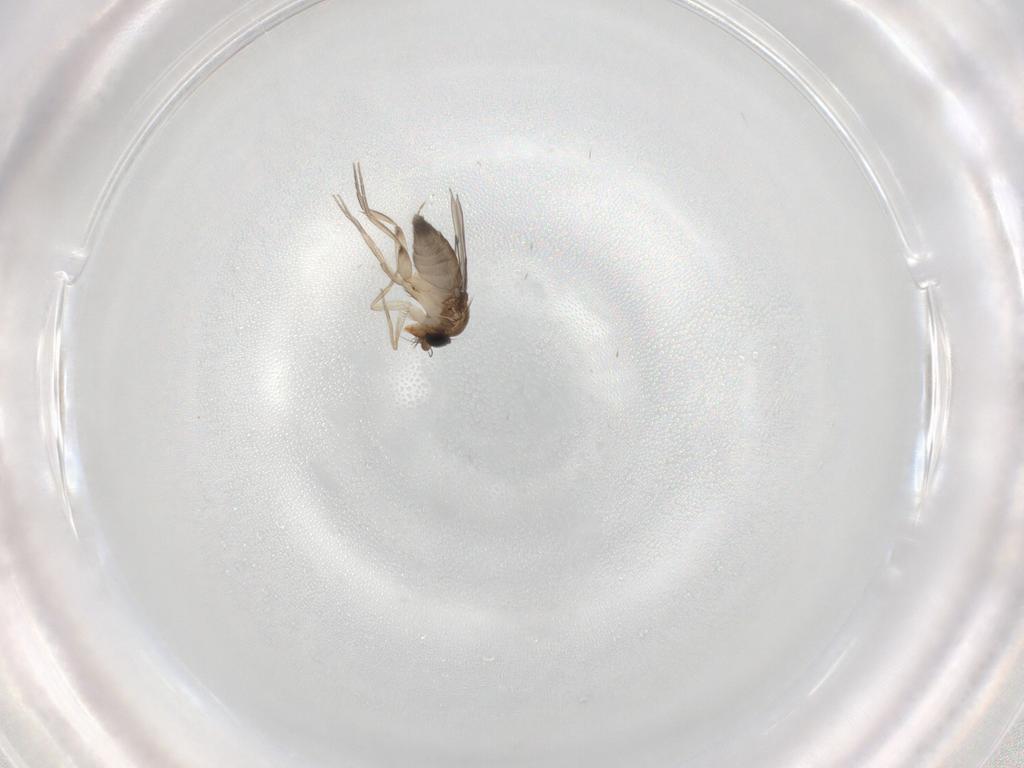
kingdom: Animalia
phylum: Arthropoda
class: Insecta
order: Diptera
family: Phoridae
